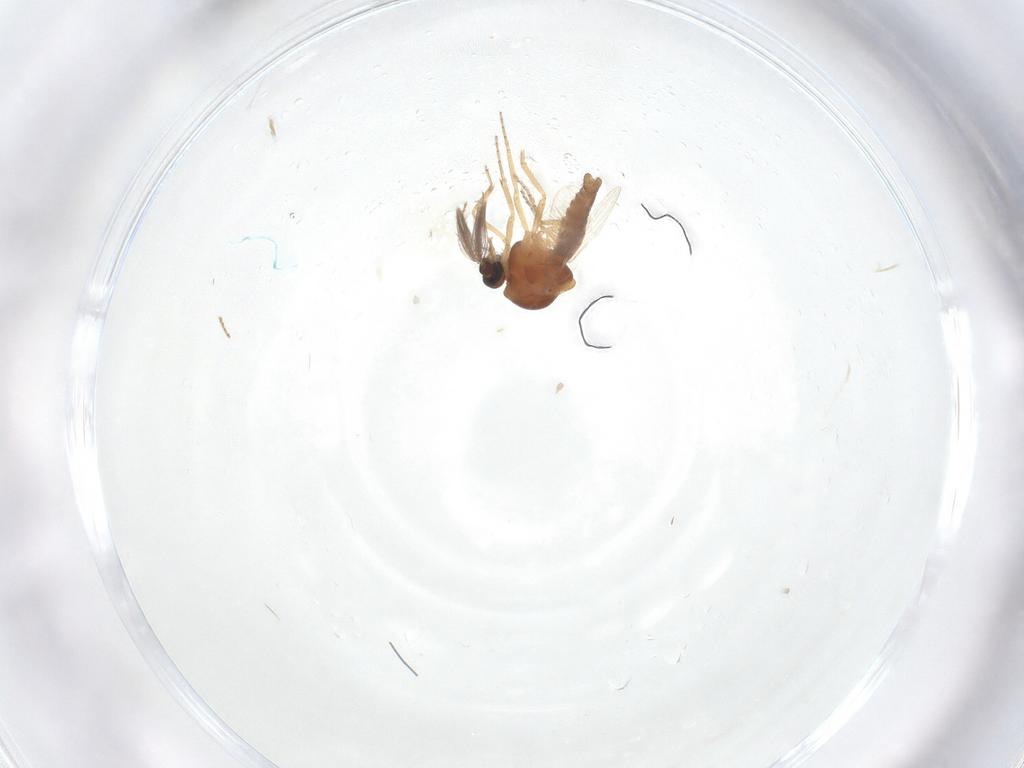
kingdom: Animalia
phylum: Arthropoda
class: Insecta
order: Diptera
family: Ceratopogonidae
